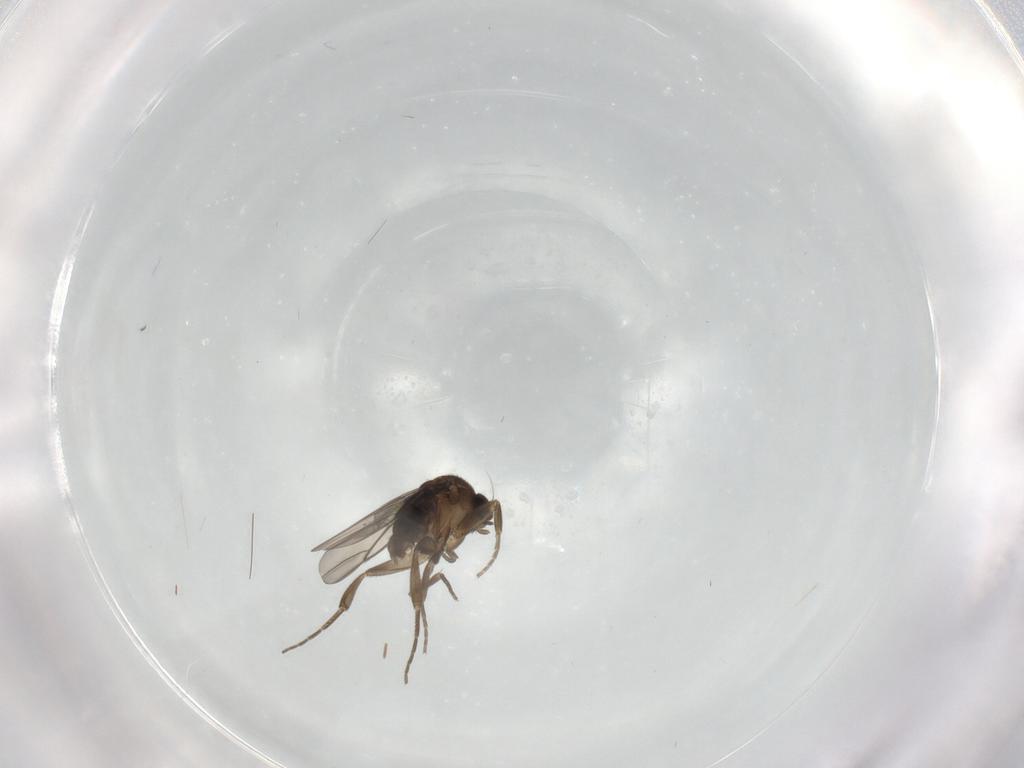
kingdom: Animalia
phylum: Arthropoda
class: Insecta
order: Diptera
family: Phoridae
